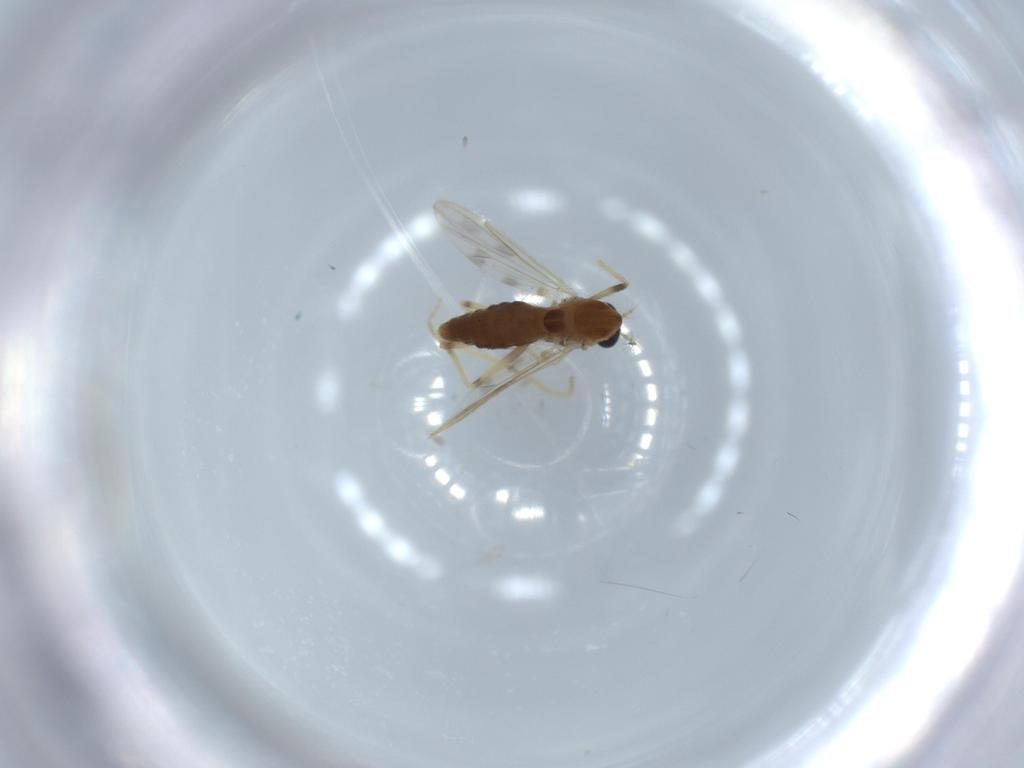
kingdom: Animalia
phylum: Arthropoda
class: Insecta
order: Diptera
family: Chironomidae
